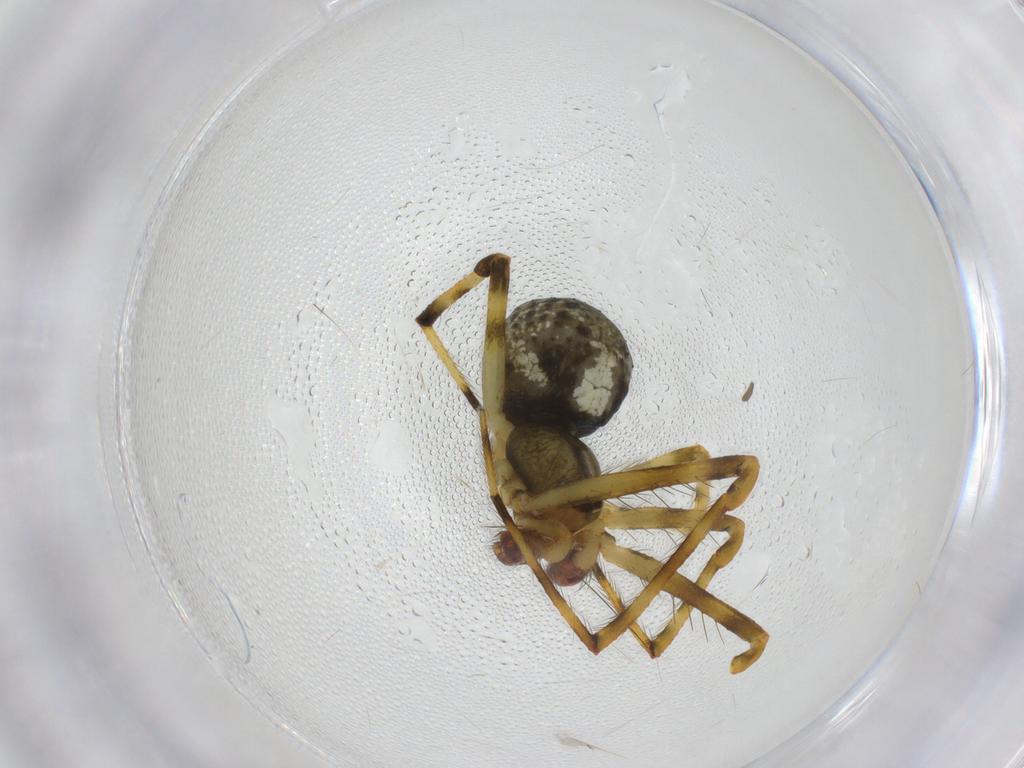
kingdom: Animalia
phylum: Arthropoda
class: Arachnida
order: Araneae
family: Theridiidae
